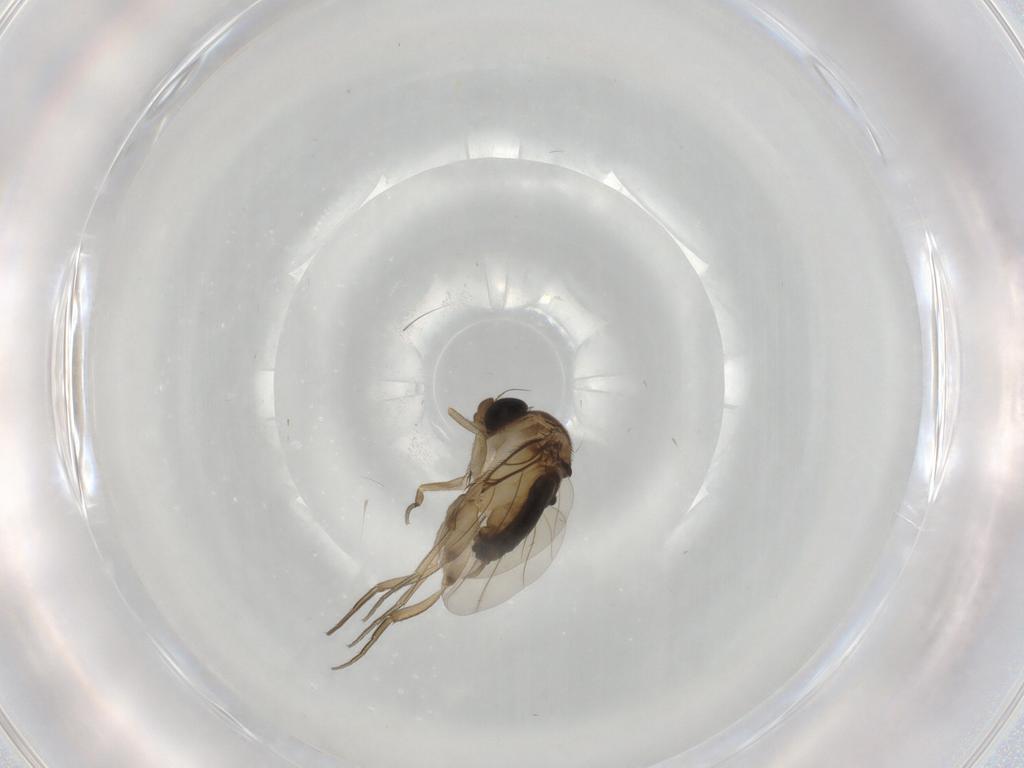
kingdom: Animalia
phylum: Arthropoda
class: Insecta
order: Diptera
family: Phoridae
